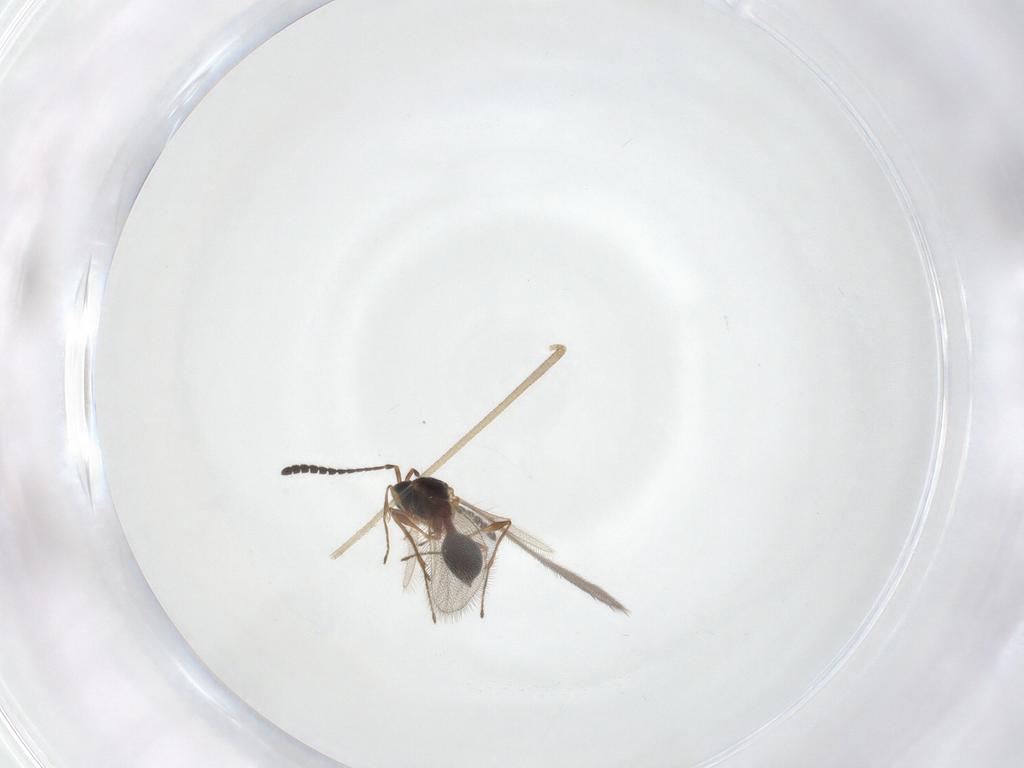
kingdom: Animalia
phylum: Arthropoda
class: Insecta
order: Hymenoptera
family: Diapriidae
